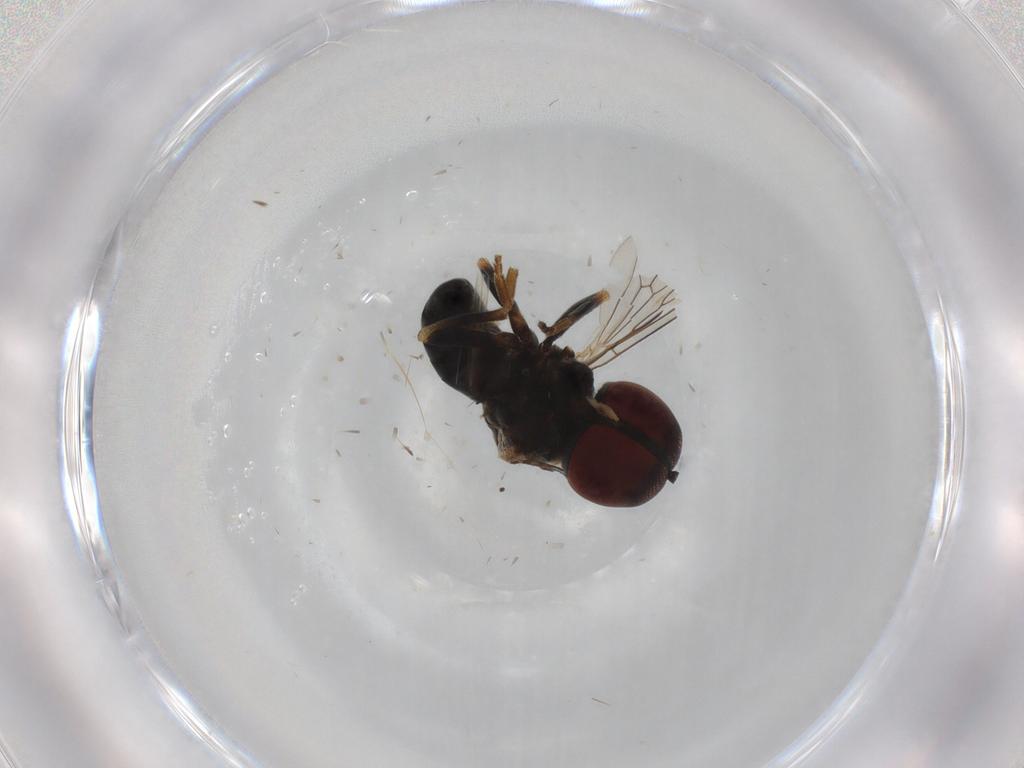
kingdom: Animalia
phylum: Arthropoda
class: Insecta
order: Diptera
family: Pipunculidae
